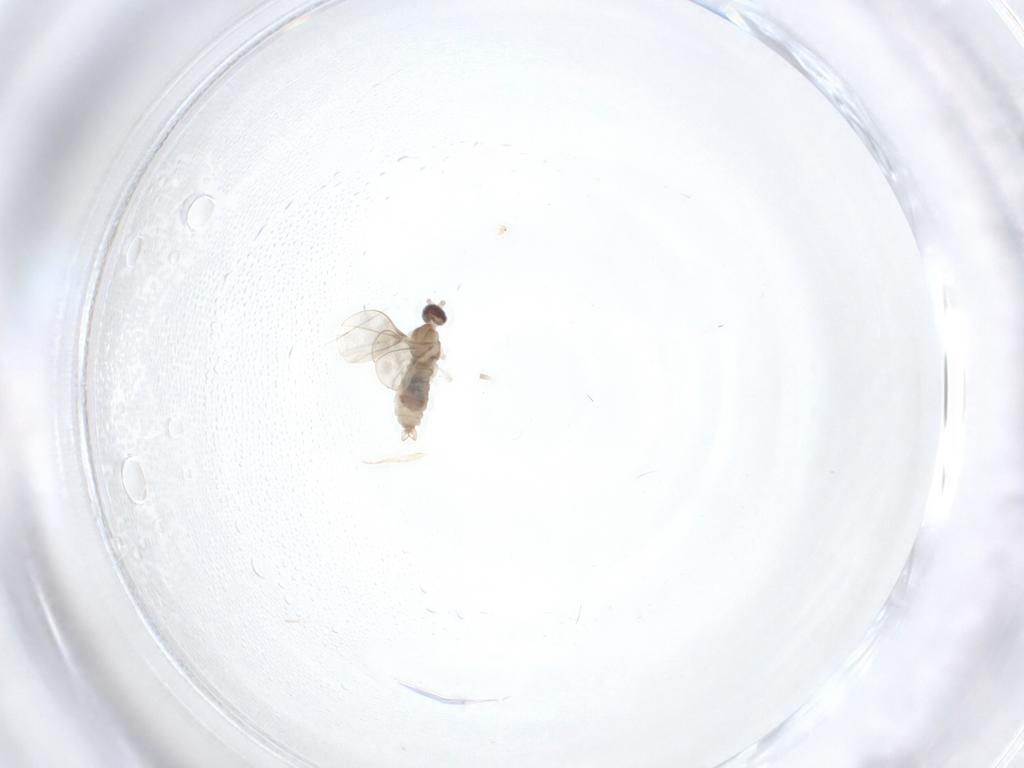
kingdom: Animalia
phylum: Arthropoda
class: Insecta
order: Diptera
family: Cecidomyiidae
